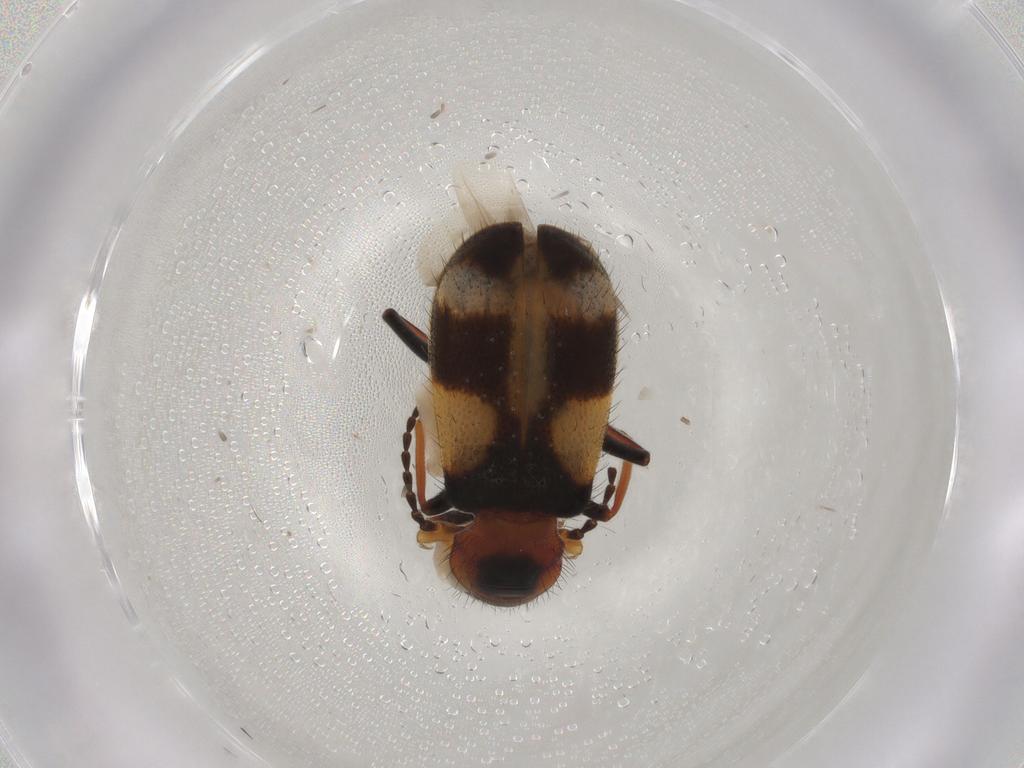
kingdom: Animalia
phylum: Arthropoda
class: Insecta
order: Coleoptera
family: Melyridae
